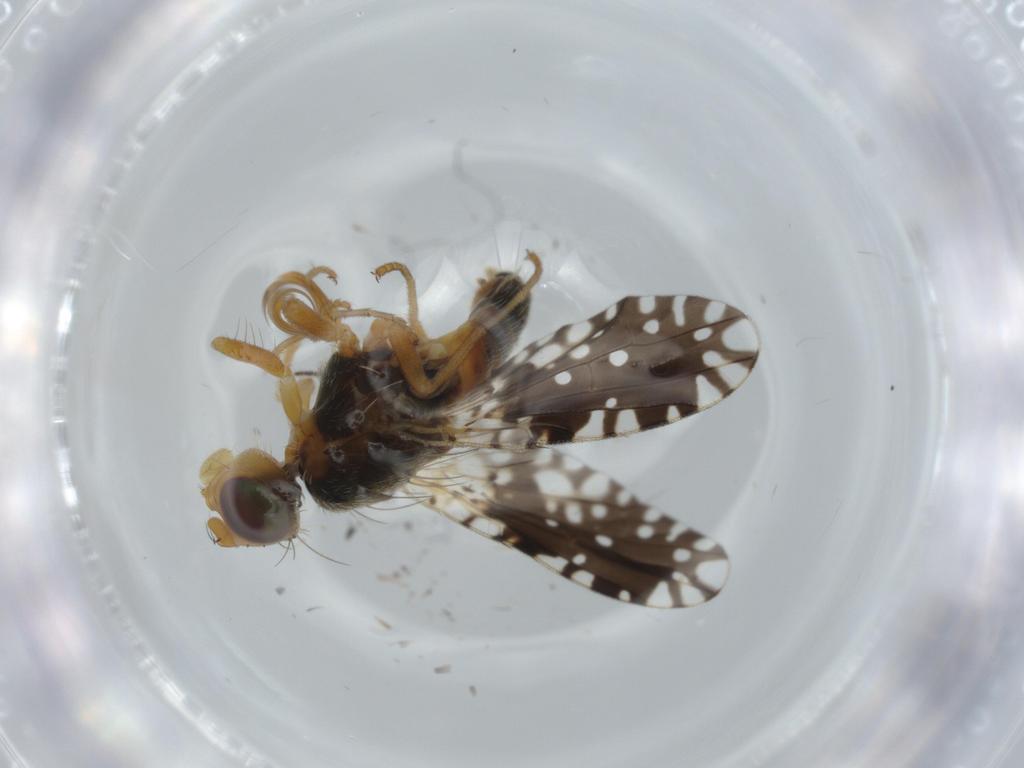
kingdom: Animalia
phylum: Arthropoda
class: Insecta
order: Diptera
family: Tephritidae
